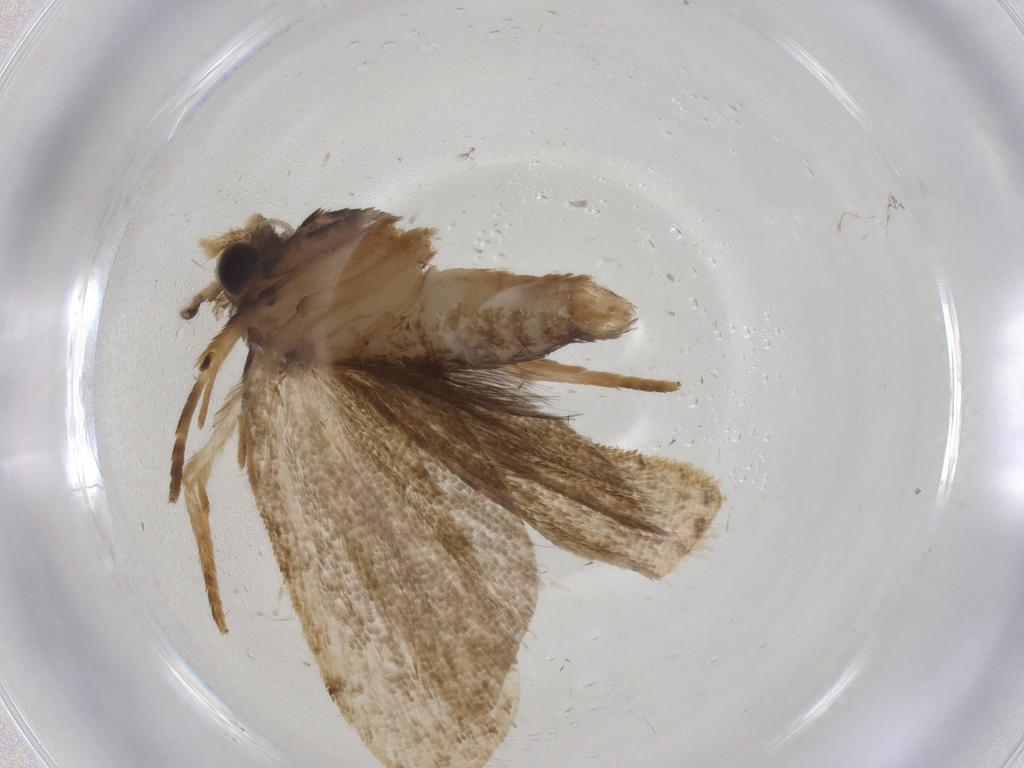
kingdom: Animalia
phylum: Arthropoda
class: Insecta
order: Lepidoptera
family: Tortricidae
